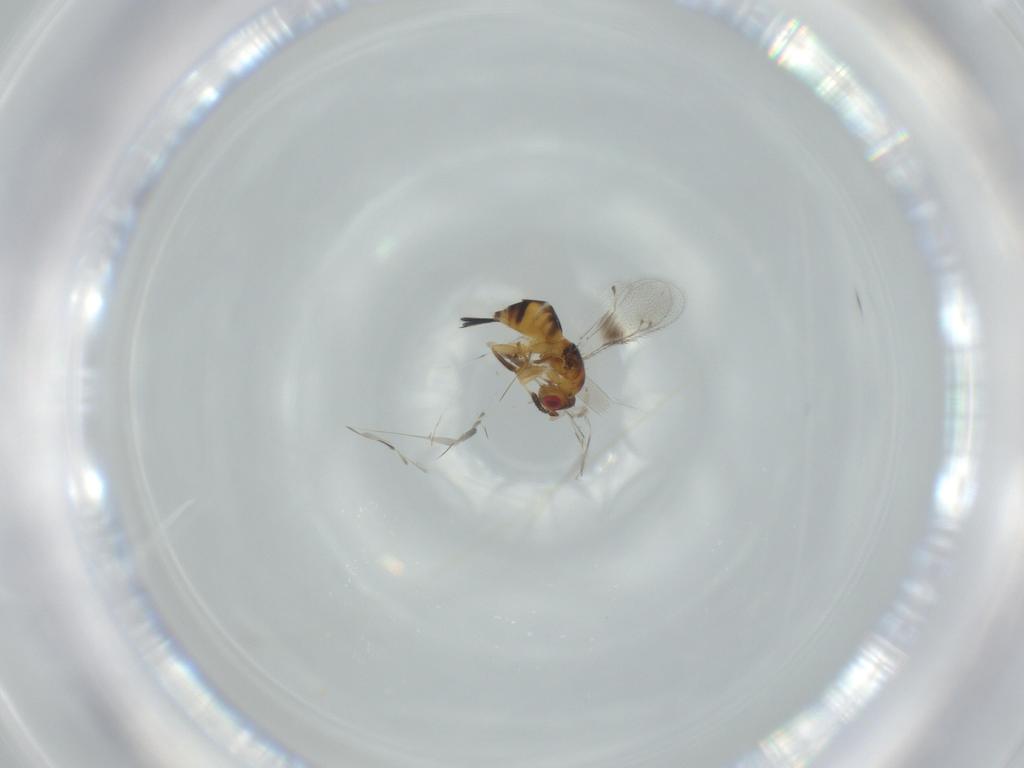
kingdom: Animalia
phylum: Arthropoda
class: Insecta
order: Hymenoptera
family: Torymidae
